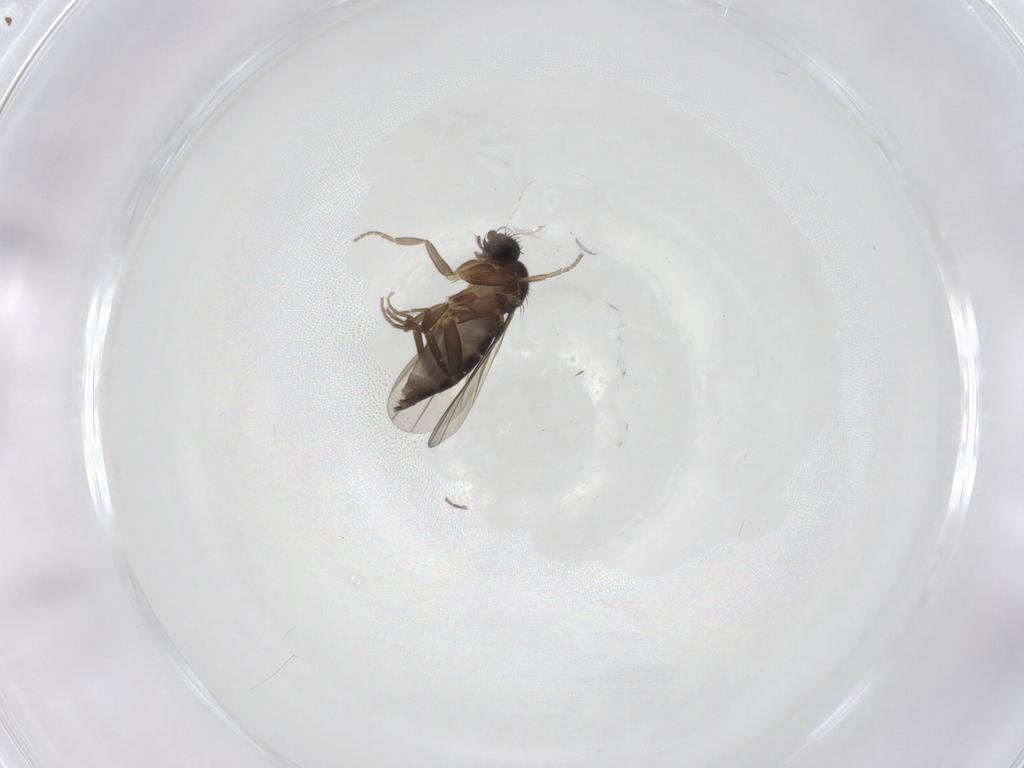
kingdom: Animalia
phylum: Arthropoda
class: Insecta
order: Diptera
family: Phoridae
